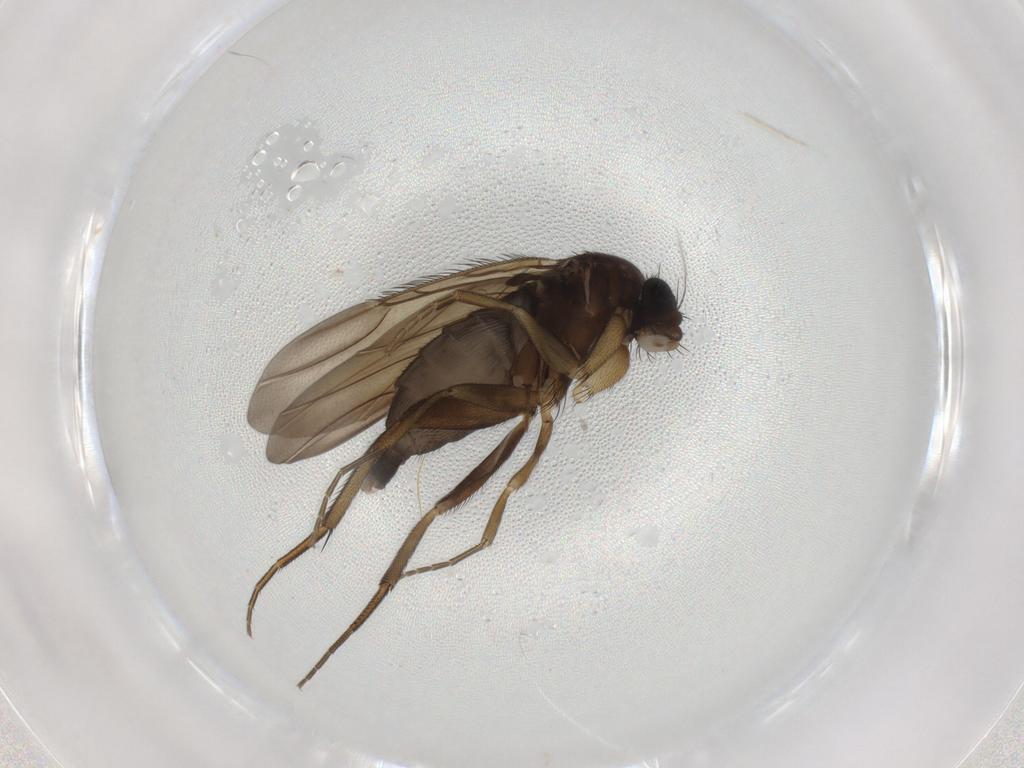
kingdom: Animalia
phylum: Arthropoda
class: Insecta
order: Diptera
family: Phoridae
